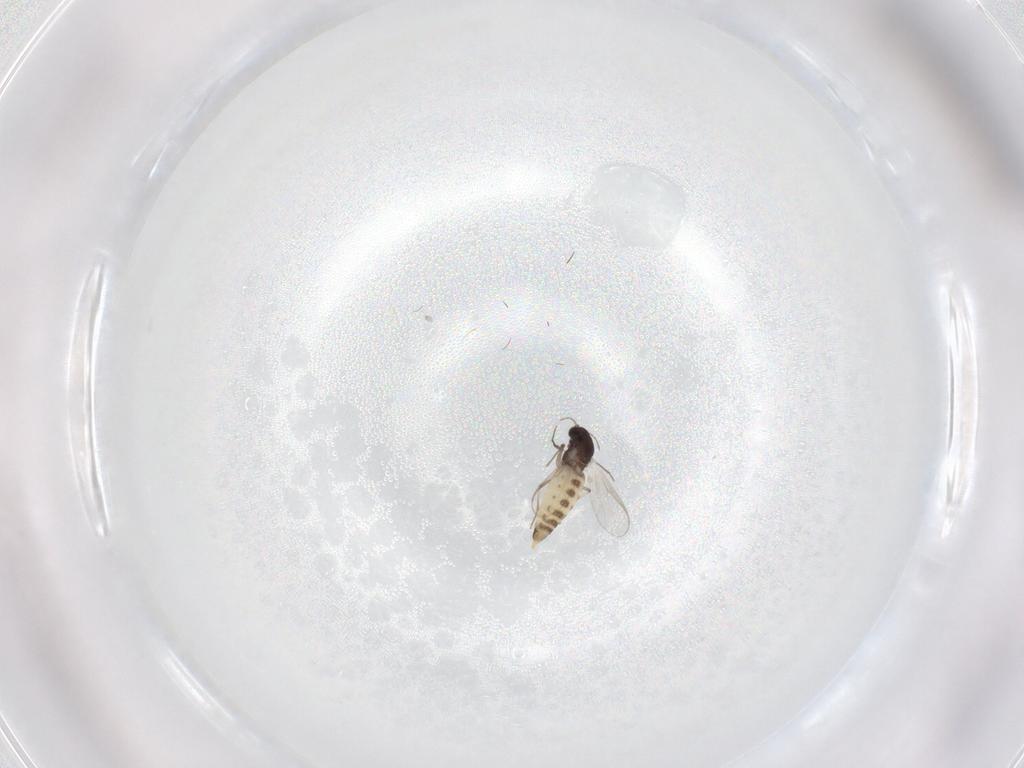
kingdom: Animalia
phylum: Arthropoda
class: Insecta
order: Diptera
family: Chironomidae
